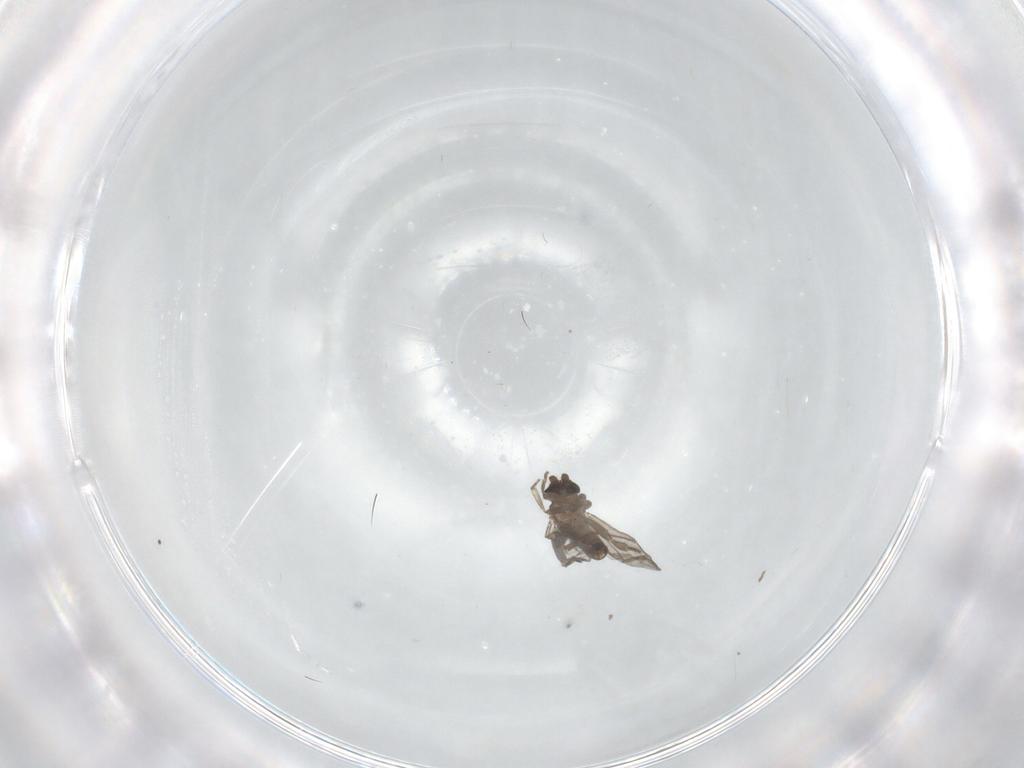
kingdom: Animalia
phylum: Arthropoda
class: Insecta
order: Diptera
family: Sciaridae
